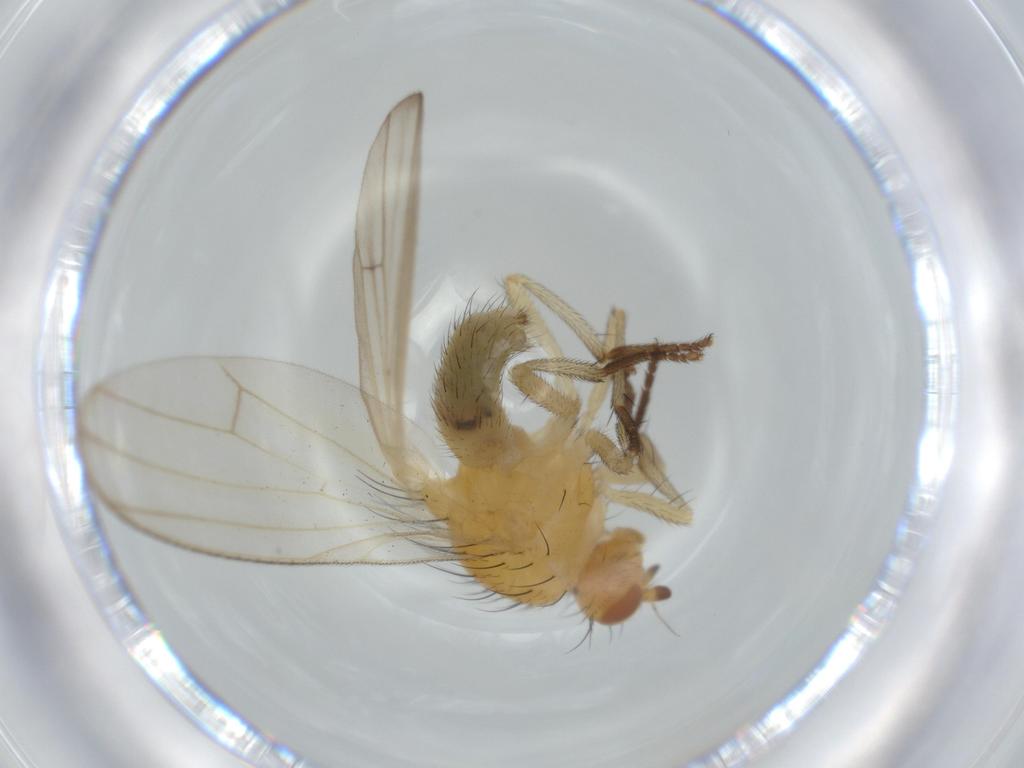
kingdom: Animalia
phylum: Arthropoda
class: Insecta
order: Diptera
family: Lauxaniidae
